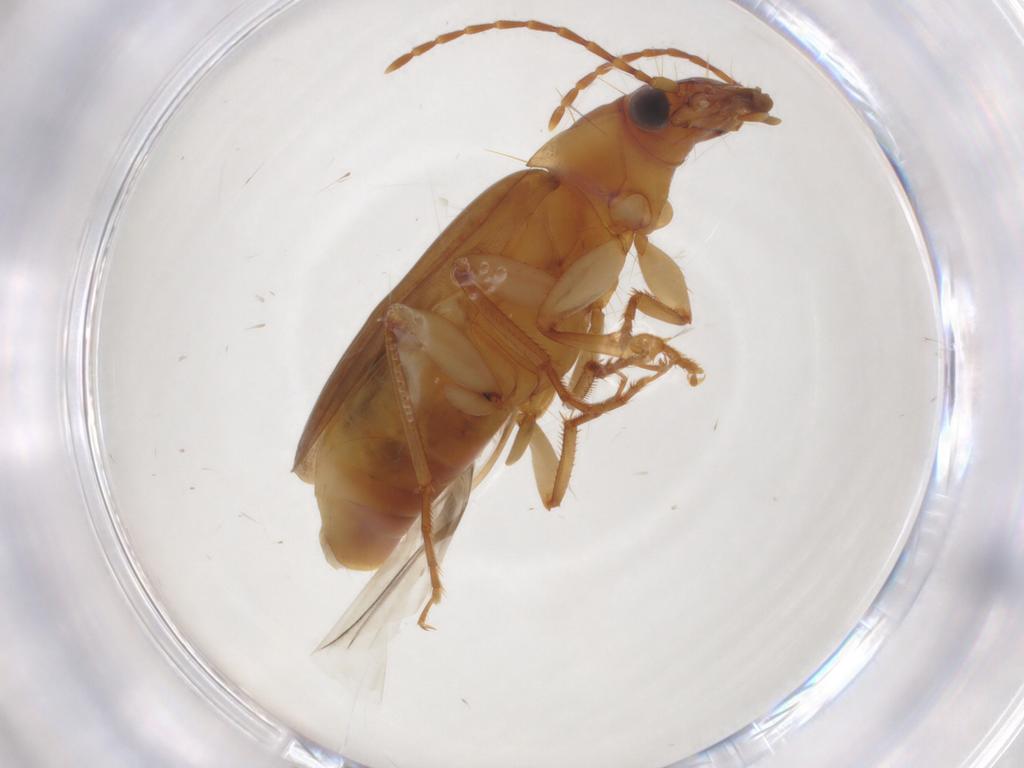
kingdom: Animalia
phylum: Arthropoda
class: Insecta
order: Coleoptera
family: Carabidae
